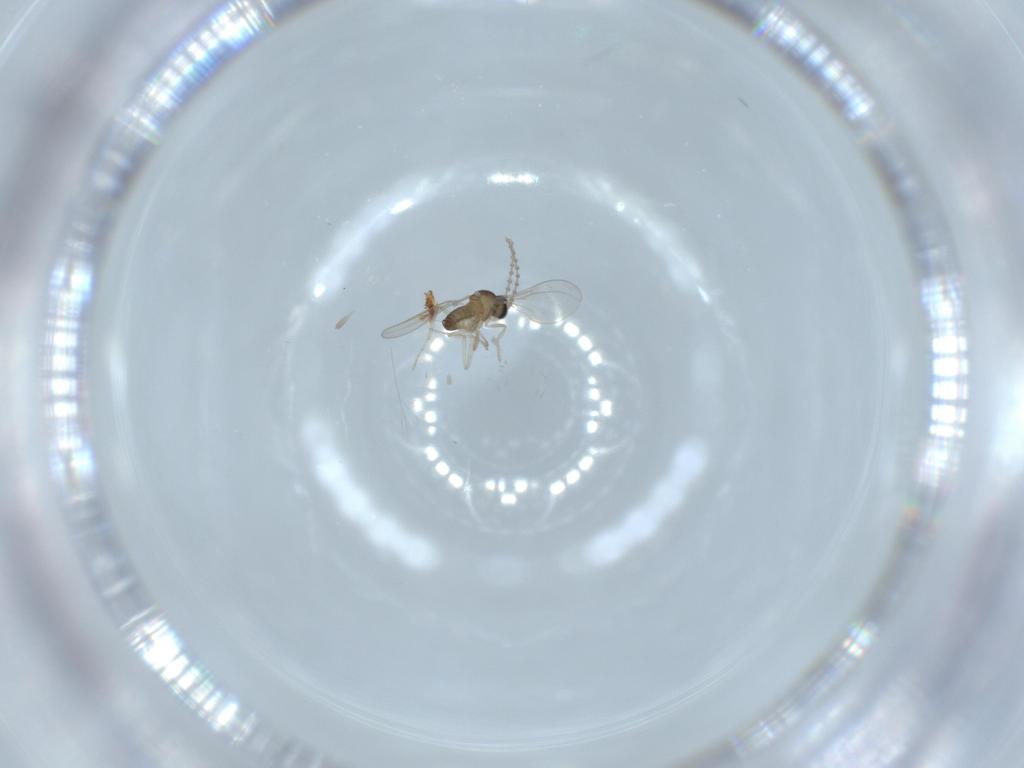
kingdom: Animalia
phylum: Arthropoda
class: Insecta
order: Diptera
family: Cecidomyiidae
